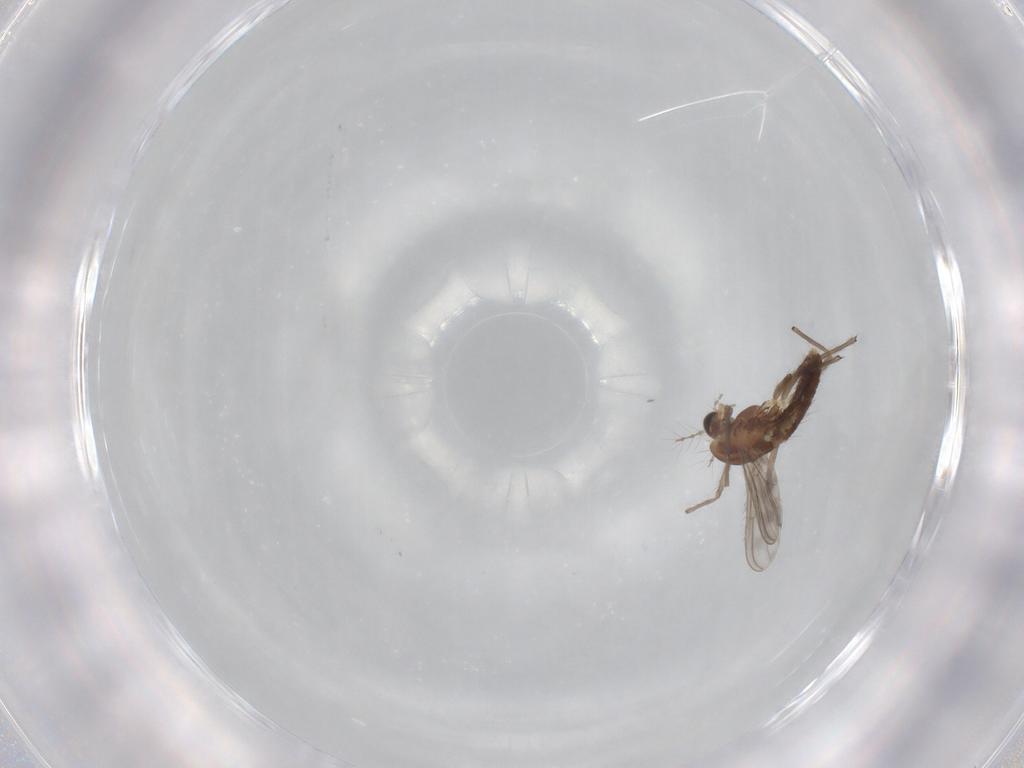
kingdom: Animalia
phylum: Arthropoda
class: Insecta
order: Diptera
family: Chironomidae
